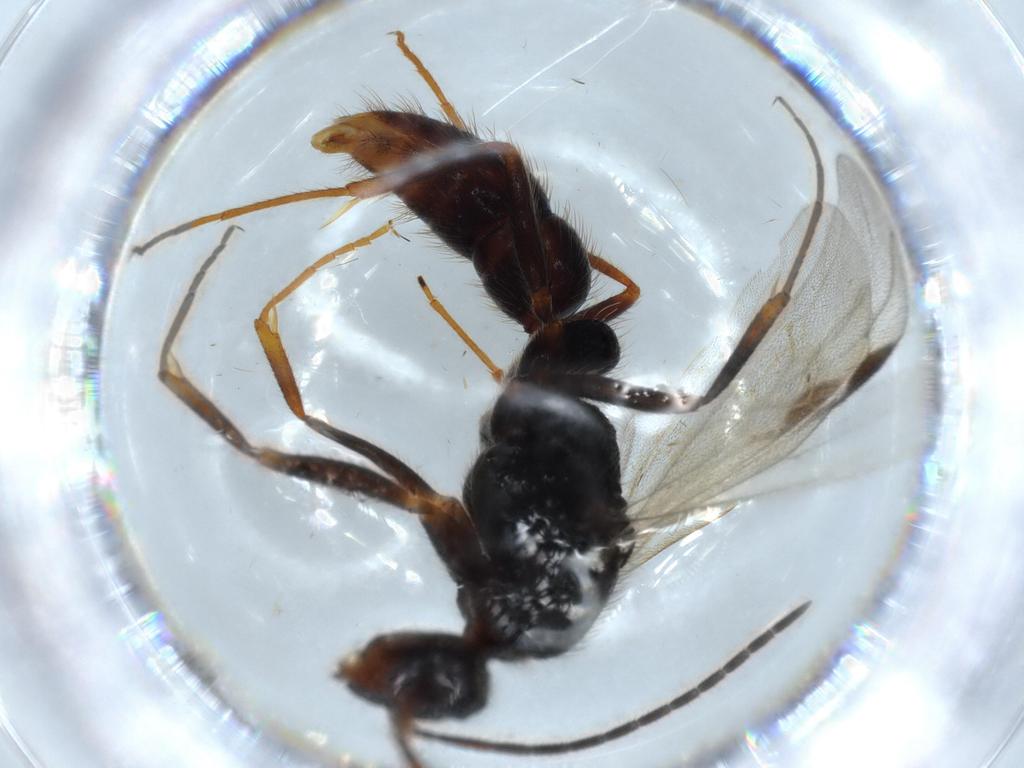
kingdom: Animalia
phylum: Arthropoda
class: Insecta
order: Hymenoptera
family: Formicidae
